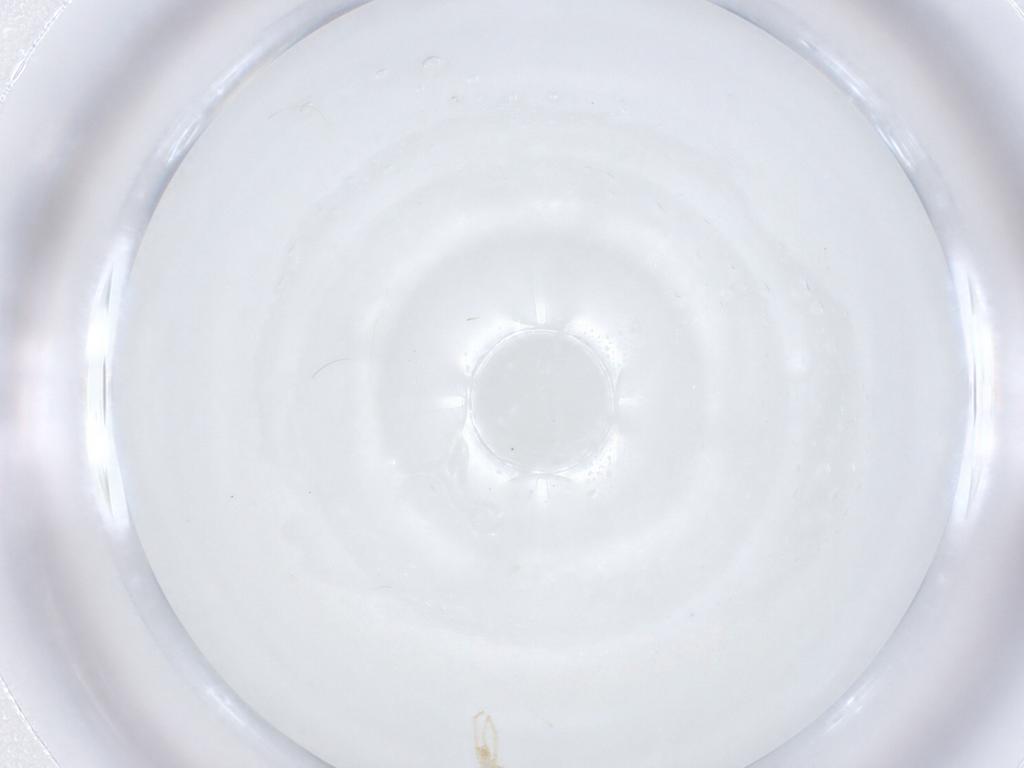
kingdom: Animalia
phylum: Arthropoda
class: Arachnida
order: Trombidiformes
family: Erythraeidae
